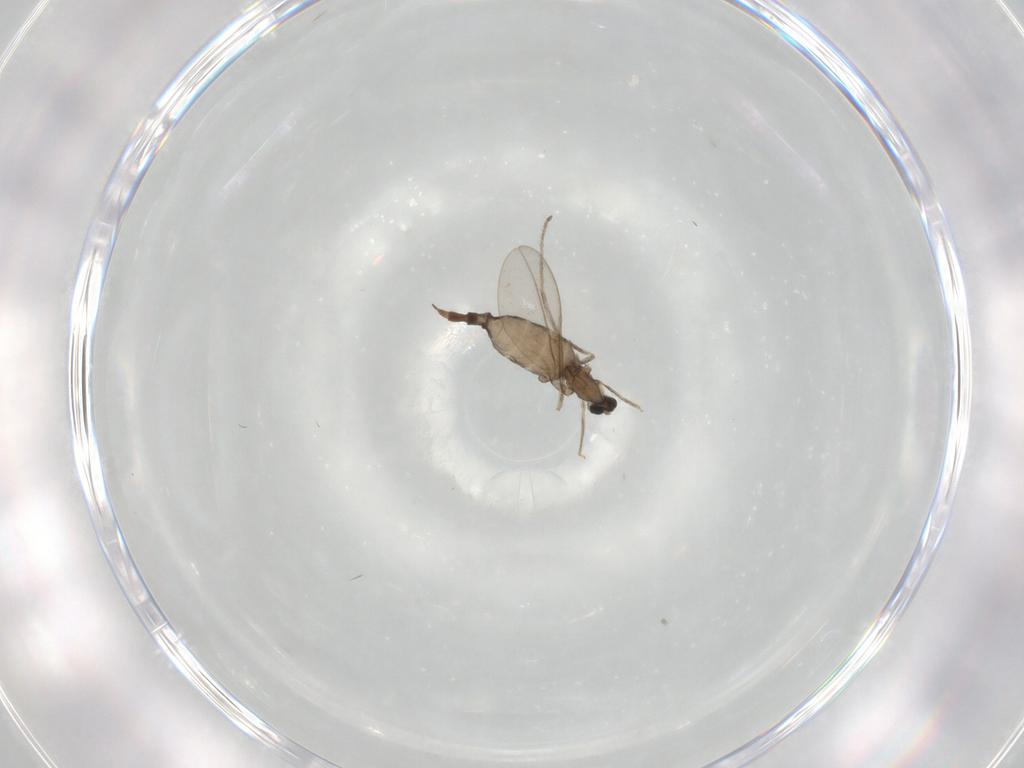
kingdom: Animalia
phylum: Arthropoda
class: Insecta
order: Diptera
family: Cecidomyiidae
